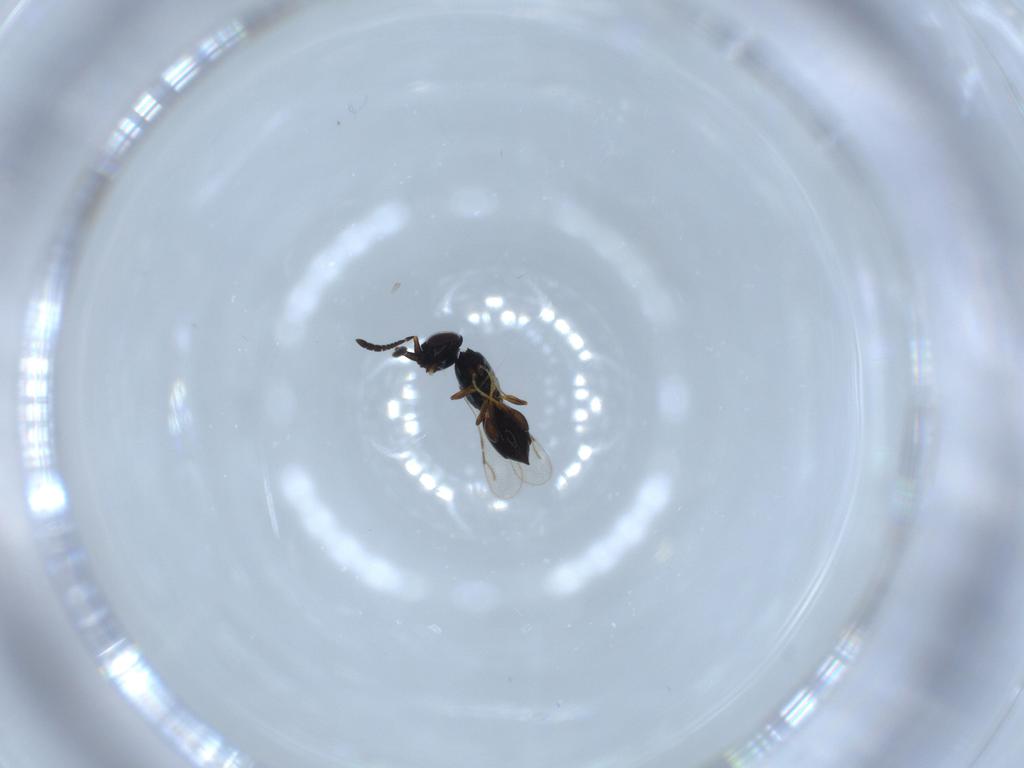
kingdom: Animalia
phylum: Arthropoda
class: Insecta
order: Hymenoptera
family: Ceraphronidae
